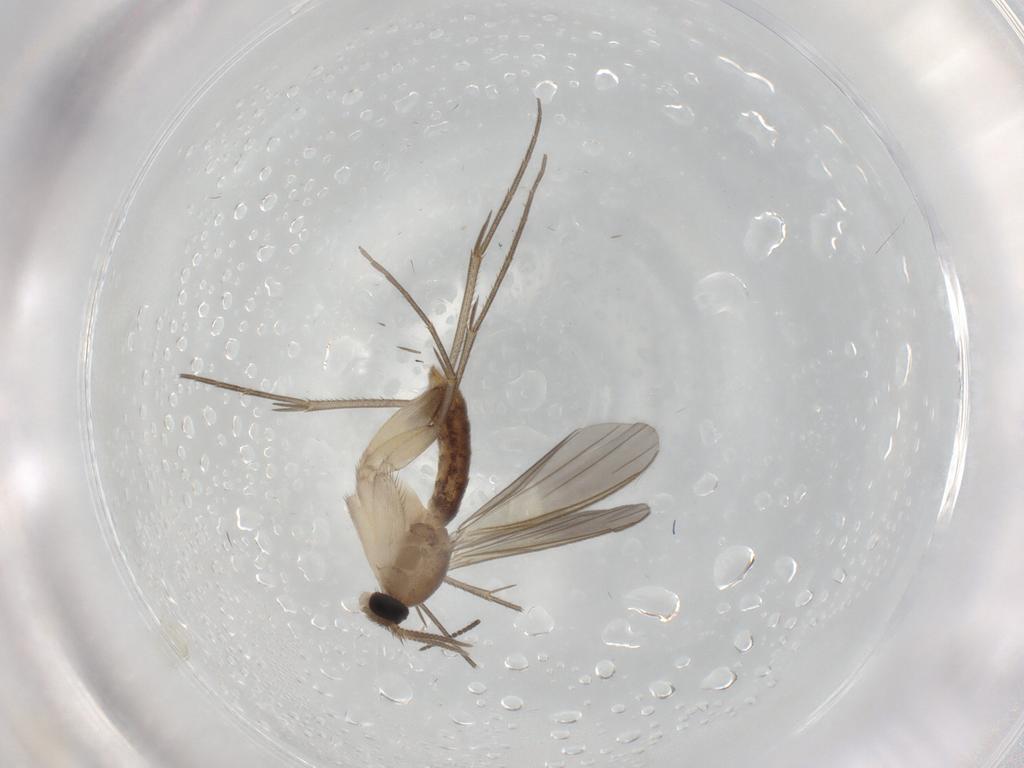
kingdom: Animalia
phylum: Arthropoda
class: Insecta
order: Diptera
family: Mycetophilidae
